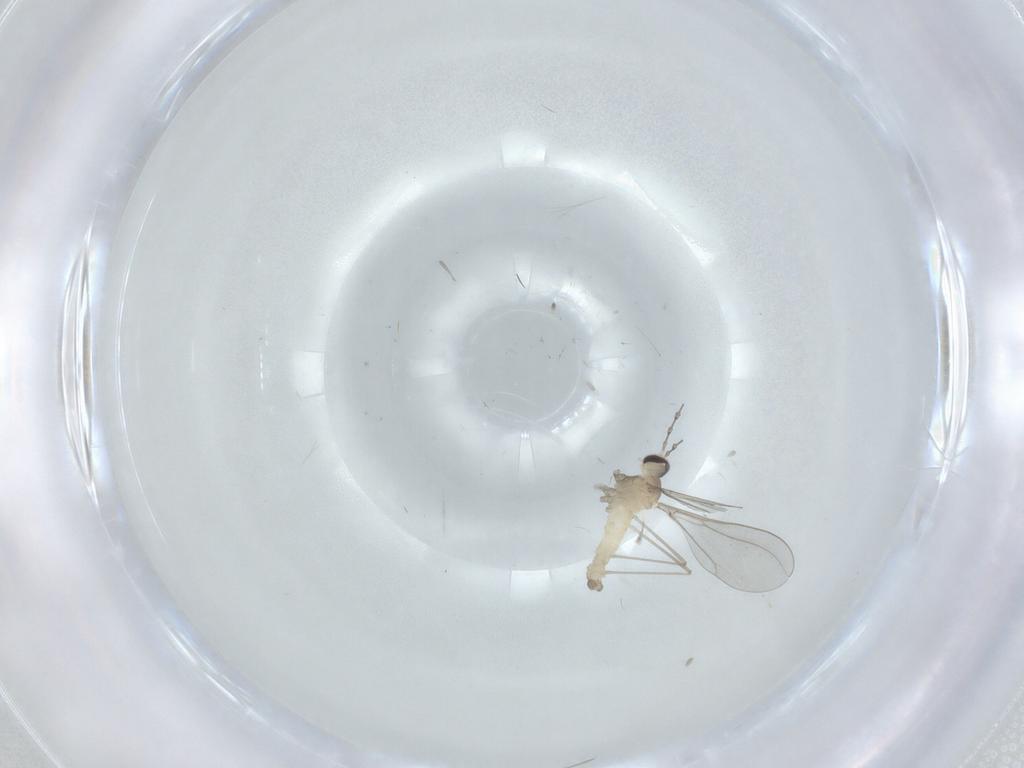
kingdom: Animalia
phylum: Arthropoda
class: Insecta
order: Diptera
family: Cecidomyiidae
